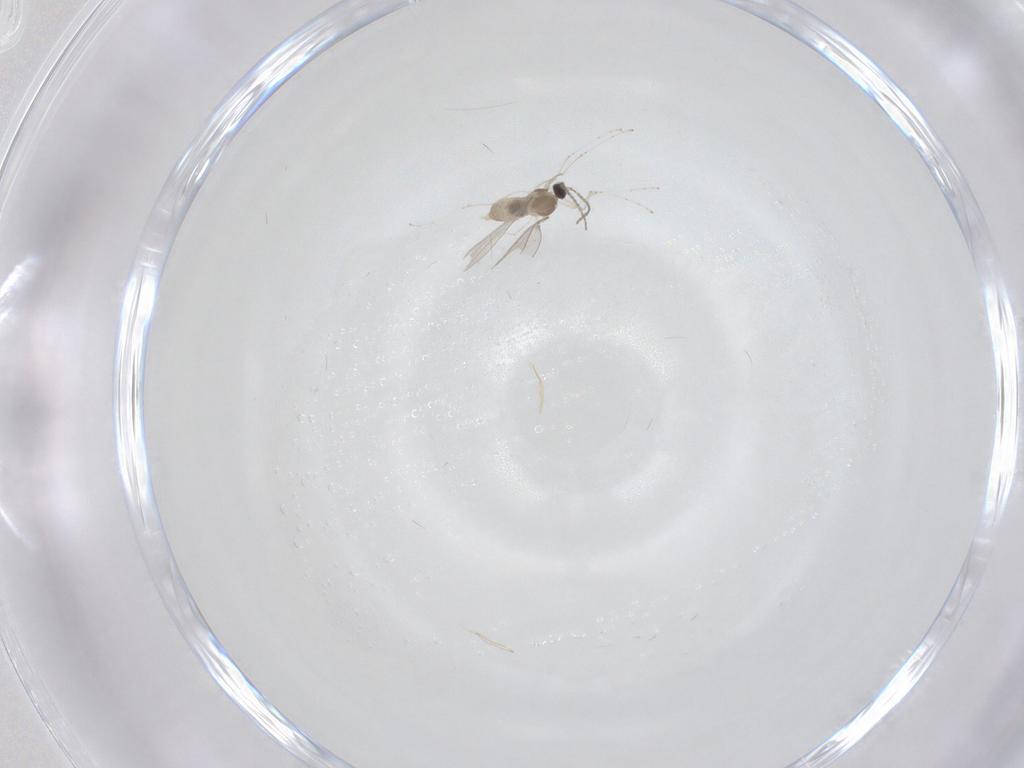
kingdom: Animalia
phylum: Arthropoda
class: Insecta
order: Diptera
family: Cecidomyiidae
